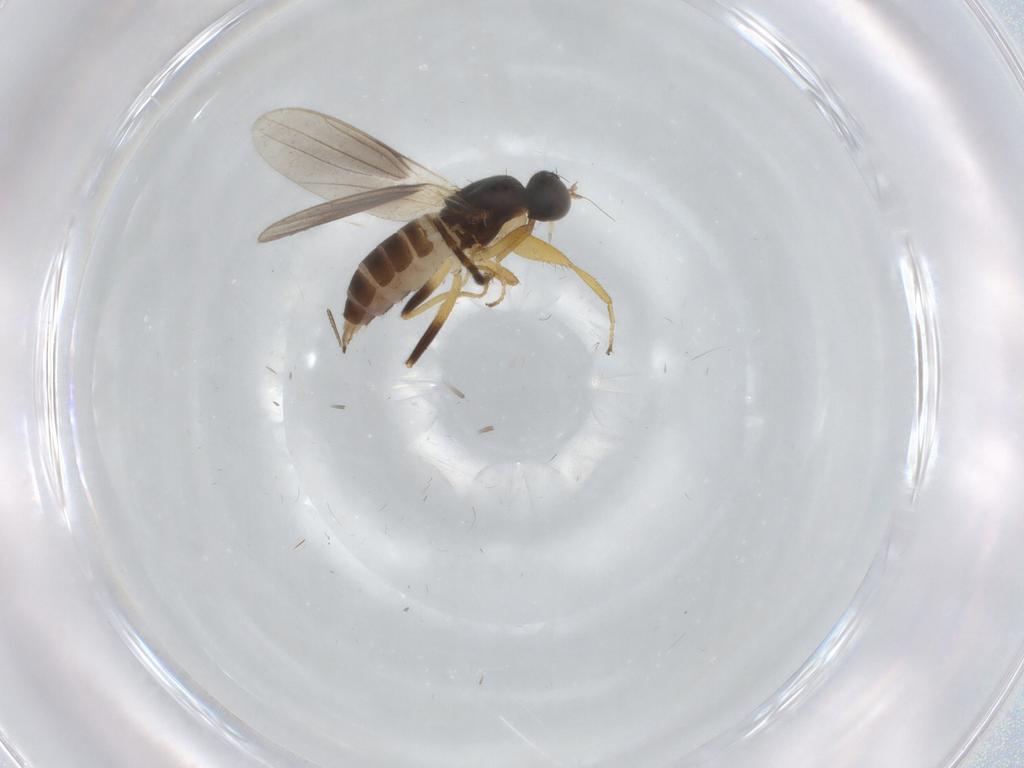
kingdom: Animalia
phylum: Arthropoda
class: Insecta
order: Diptera
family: Hybotidae
